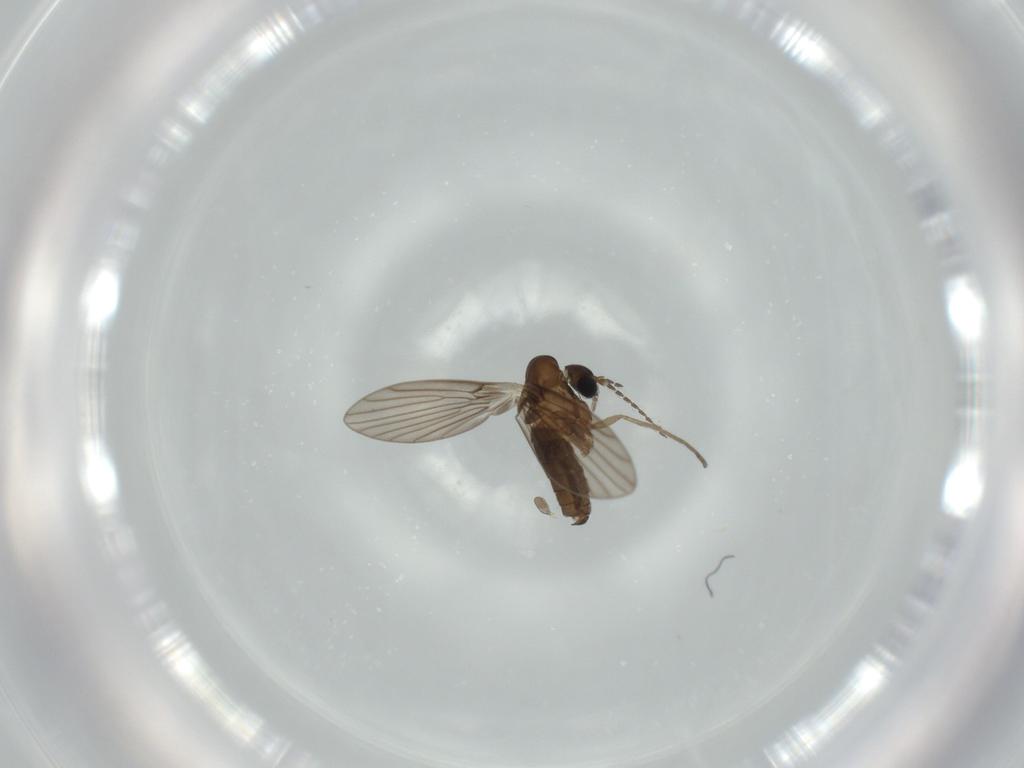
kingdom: Animalia
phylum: Arthropoda
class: Insecta
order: Diptera
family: Psychodidae
